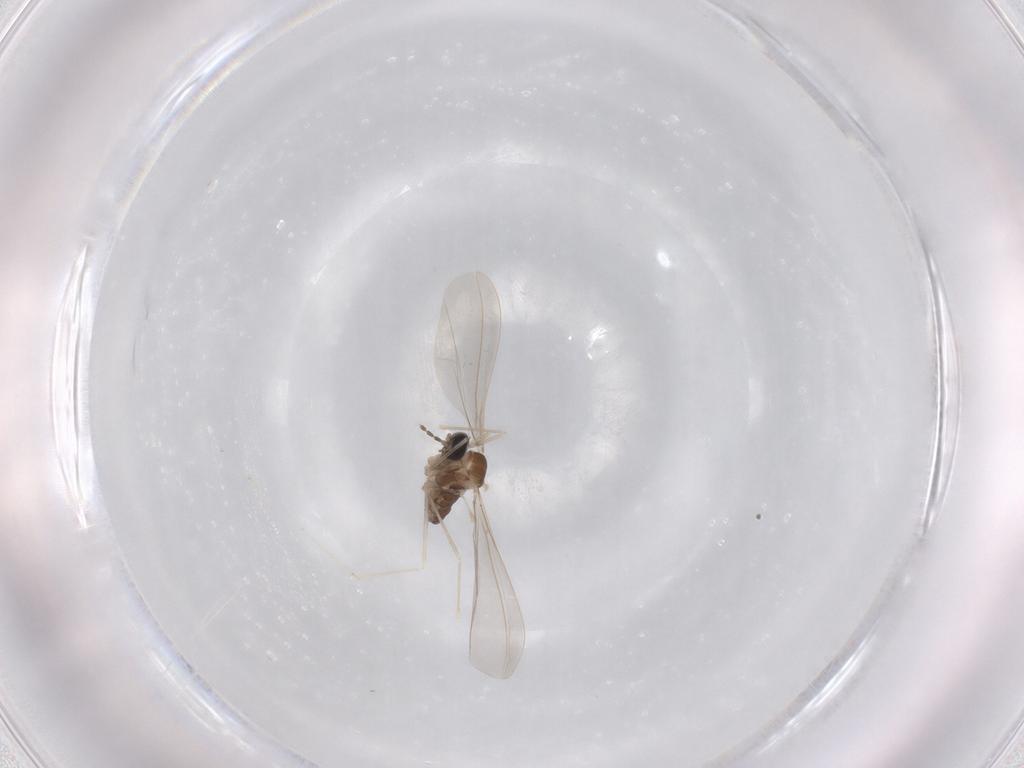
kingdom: Animalia
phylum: Arthropoda
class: Insecta
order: Diptera
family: Cecidomyiidae
